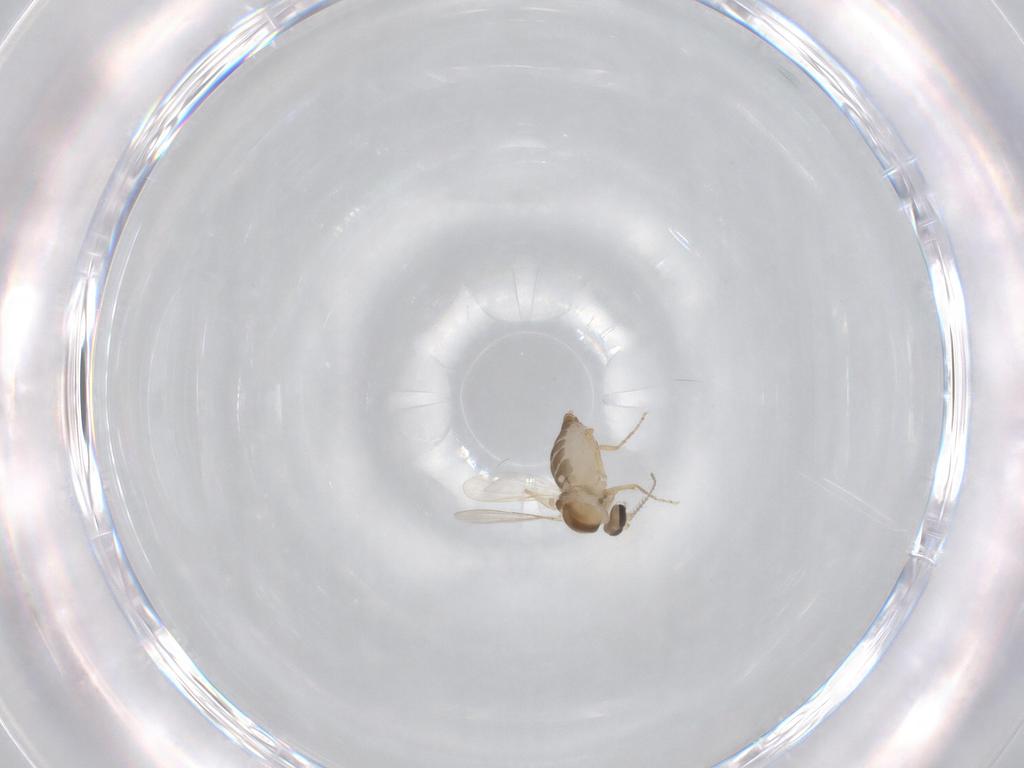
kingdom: Animalia
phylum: Arthropoda
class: Insecta
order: Diptera
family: Ceratopogonidae
